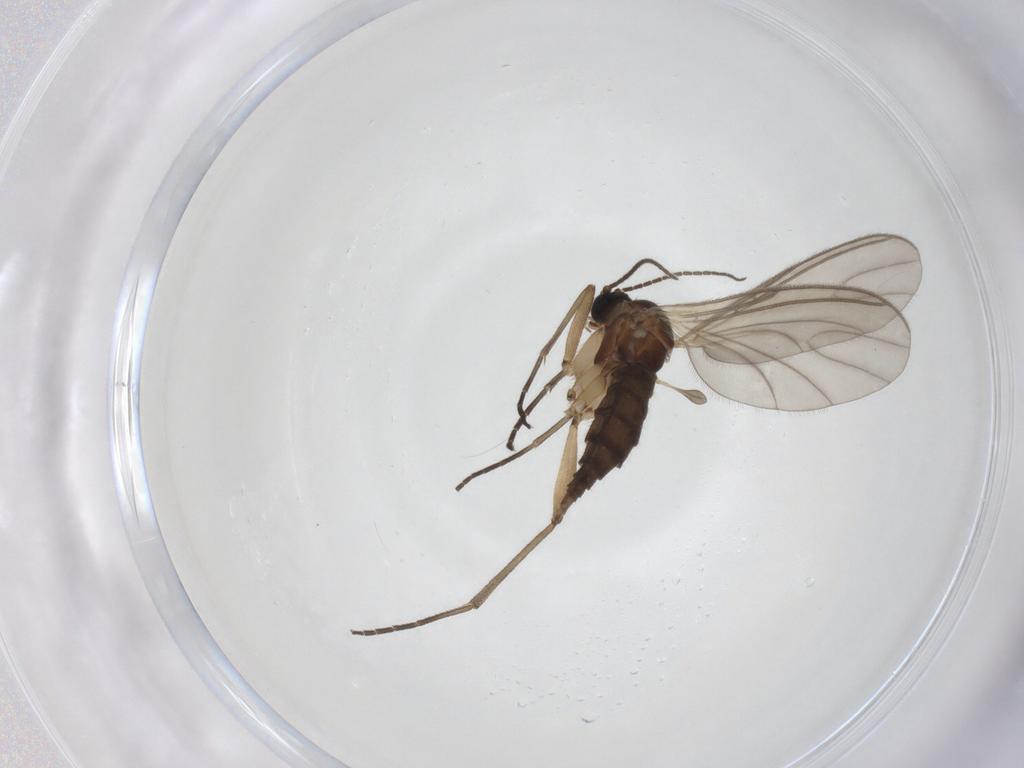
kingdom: Animalia
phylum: Arthropoda
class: Insecta
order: Diptera
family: Sciaridae
